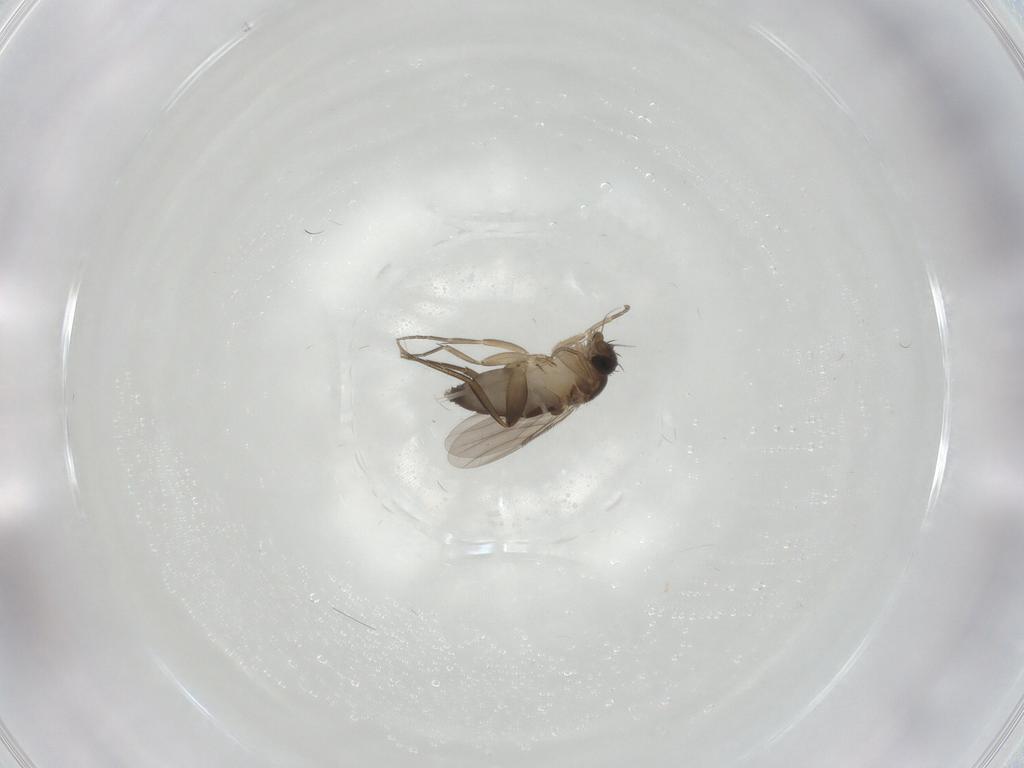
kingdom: Animalia
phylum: Arthropoda
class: Insecta
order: Diptera
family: Phoridae
